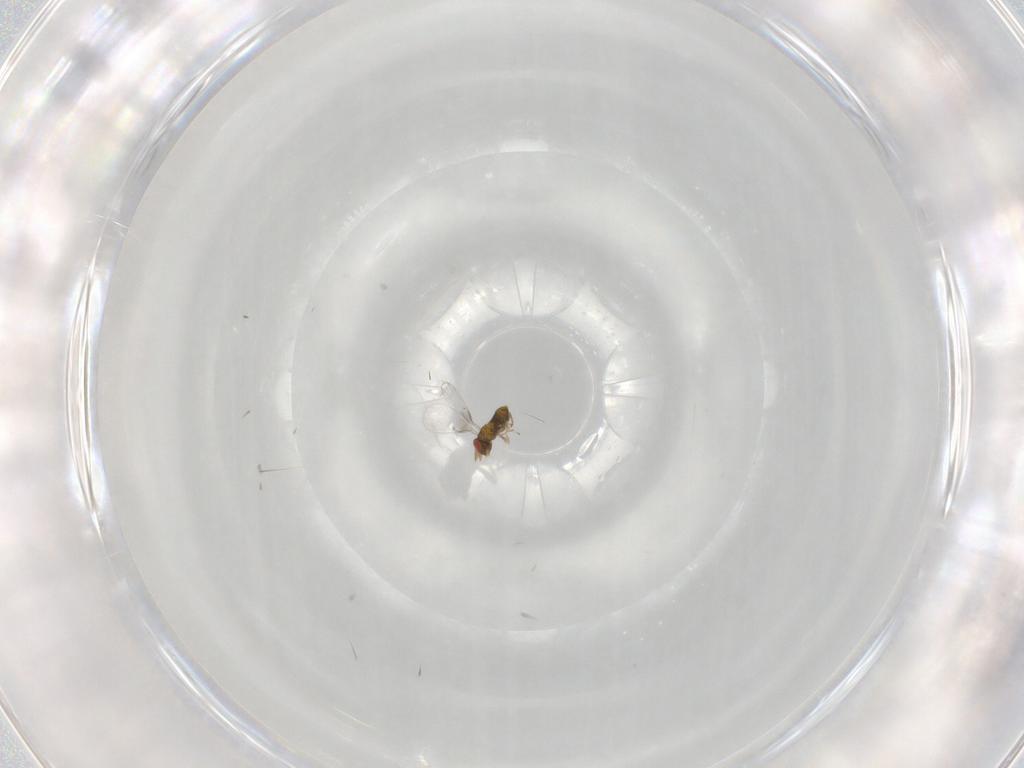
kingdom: Animalia
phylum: Arthropoda
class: Insecta
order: Hymenoptera
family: Trichogrammatidae
